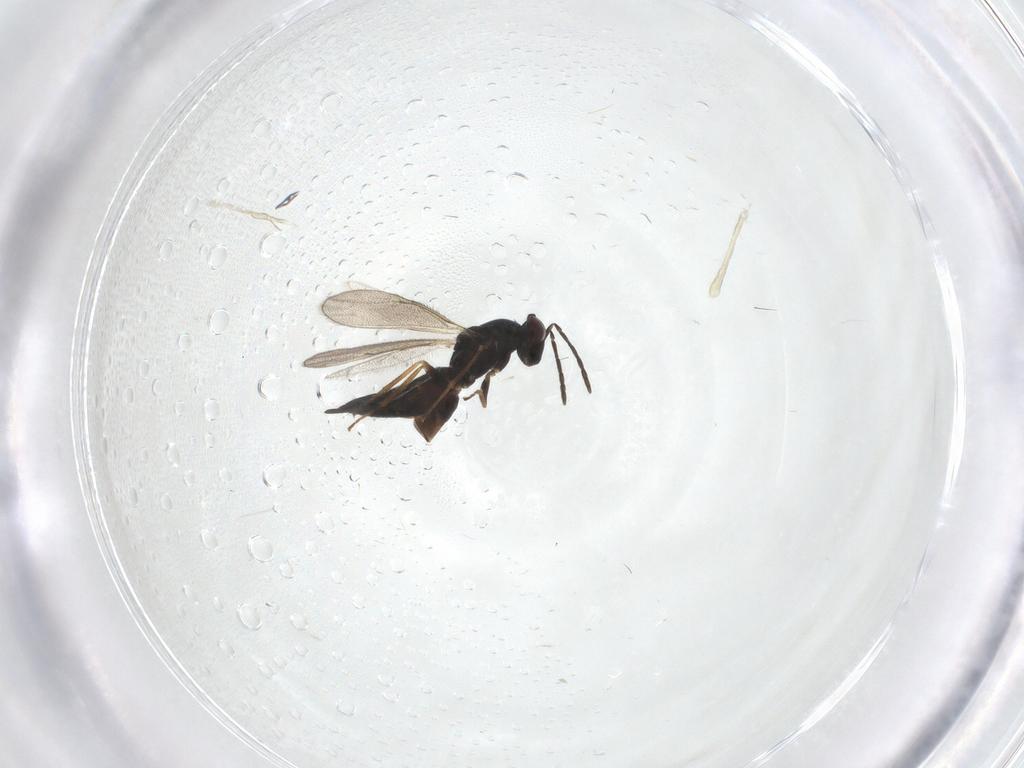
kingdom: Animalia
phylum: Arthropoda
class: Insecta
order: Hymenoptera
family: Eulophidae
